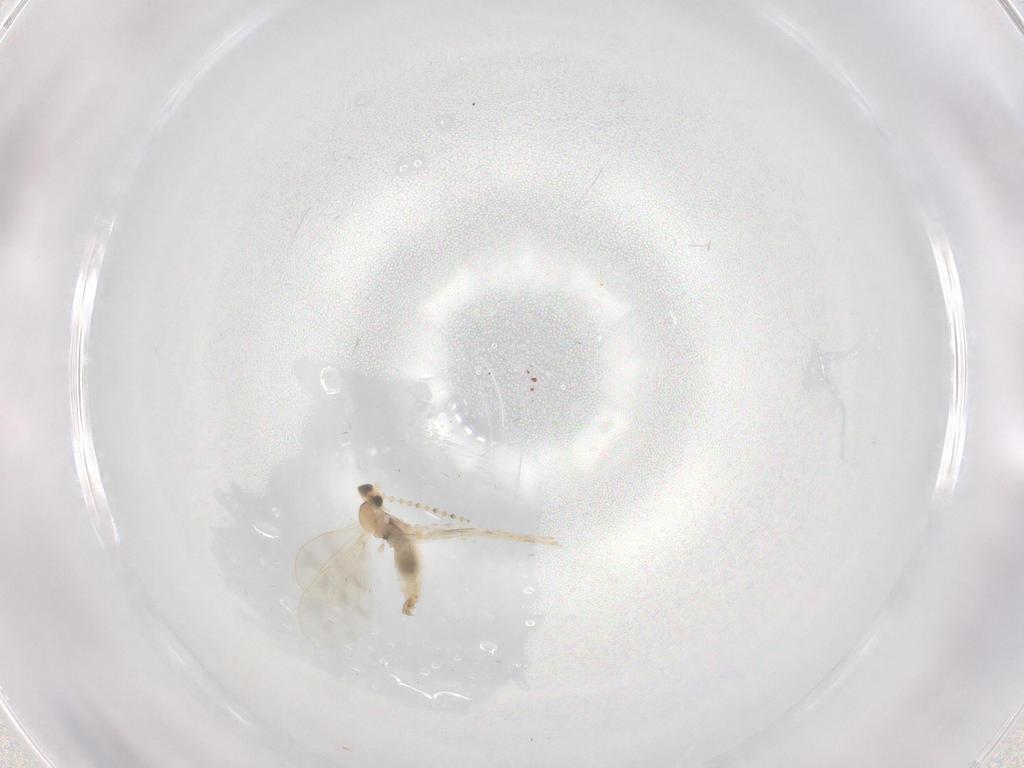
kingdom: Animalia
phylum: Arthropoda
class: Insecta
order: Diptera
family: Cecidomyiidae
